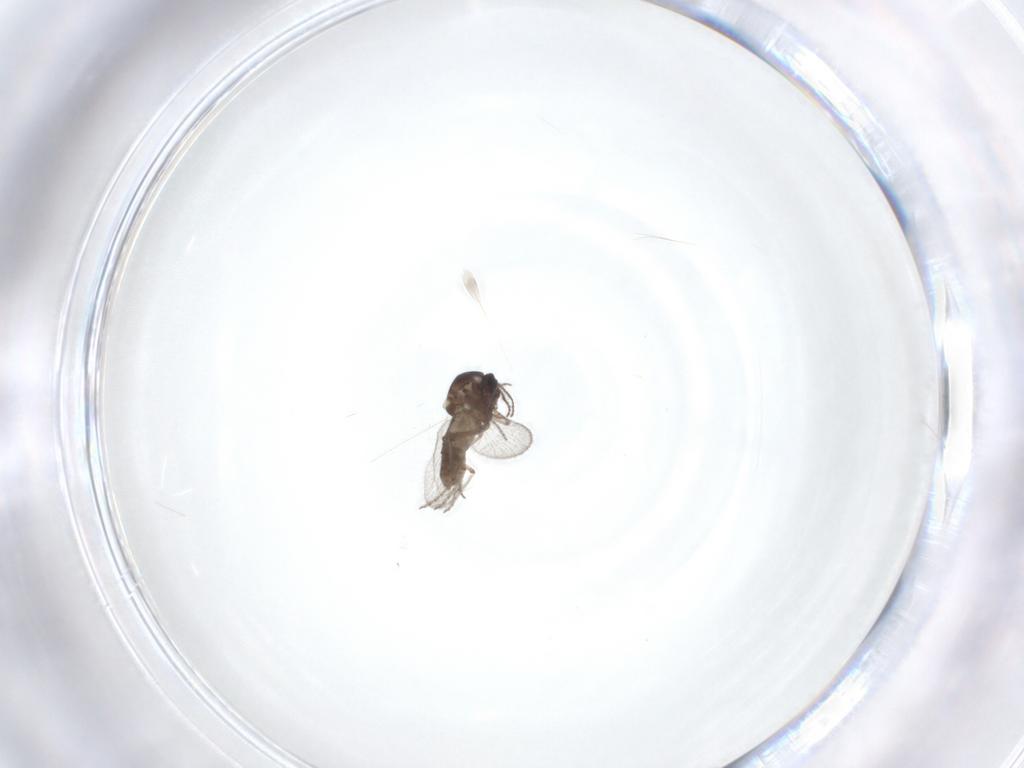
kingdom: Animalia
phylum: Arthropoda
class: Insecta
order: Diptera
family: Ceratopogonidae
